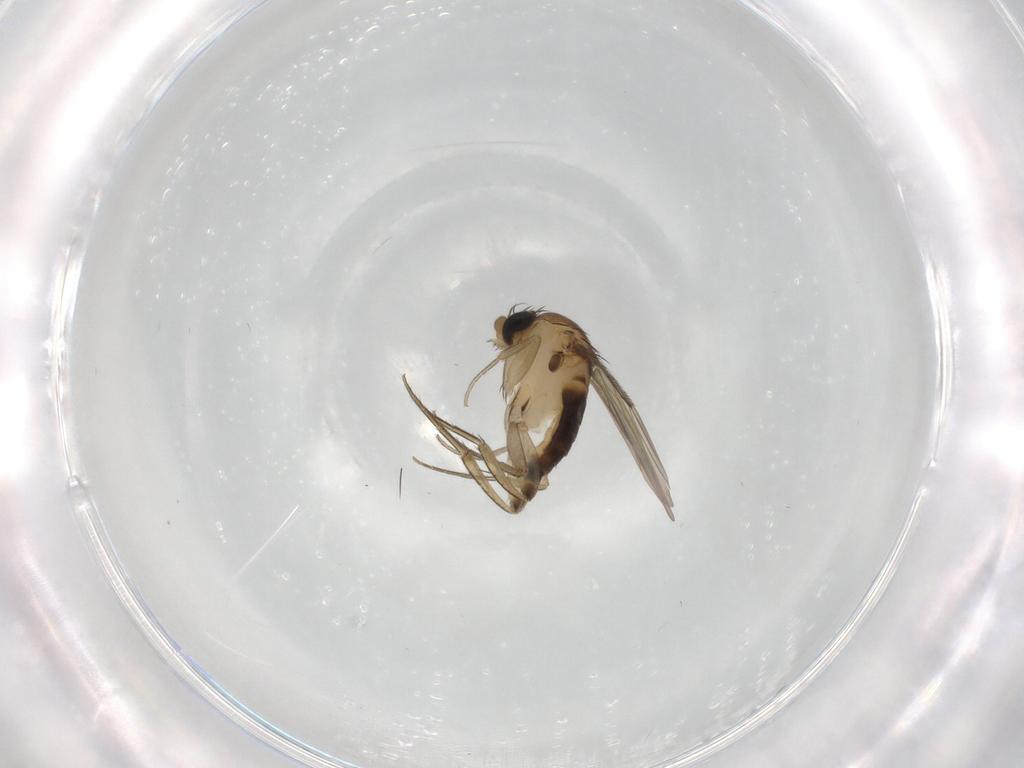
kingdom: Animalia
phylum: Arthropoda
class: Insecta
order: Diptera
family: Phoridae
